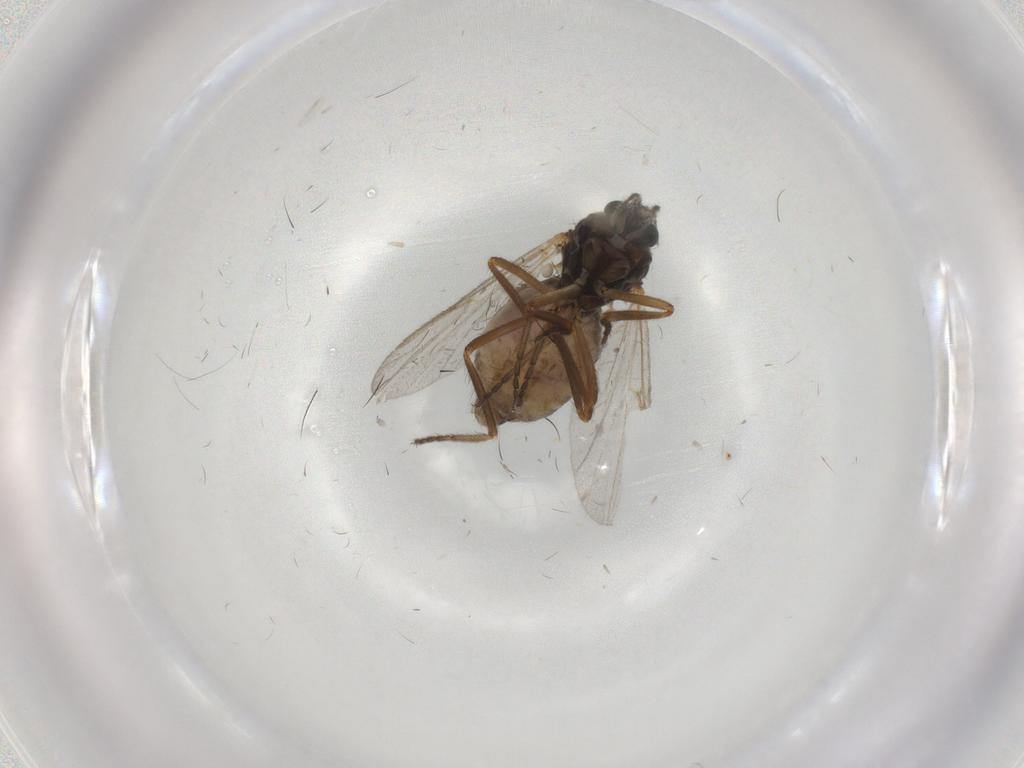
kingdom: Animalia
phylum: Arthropoda
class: Insecta
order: Diptera
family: Ceratopogonidae
